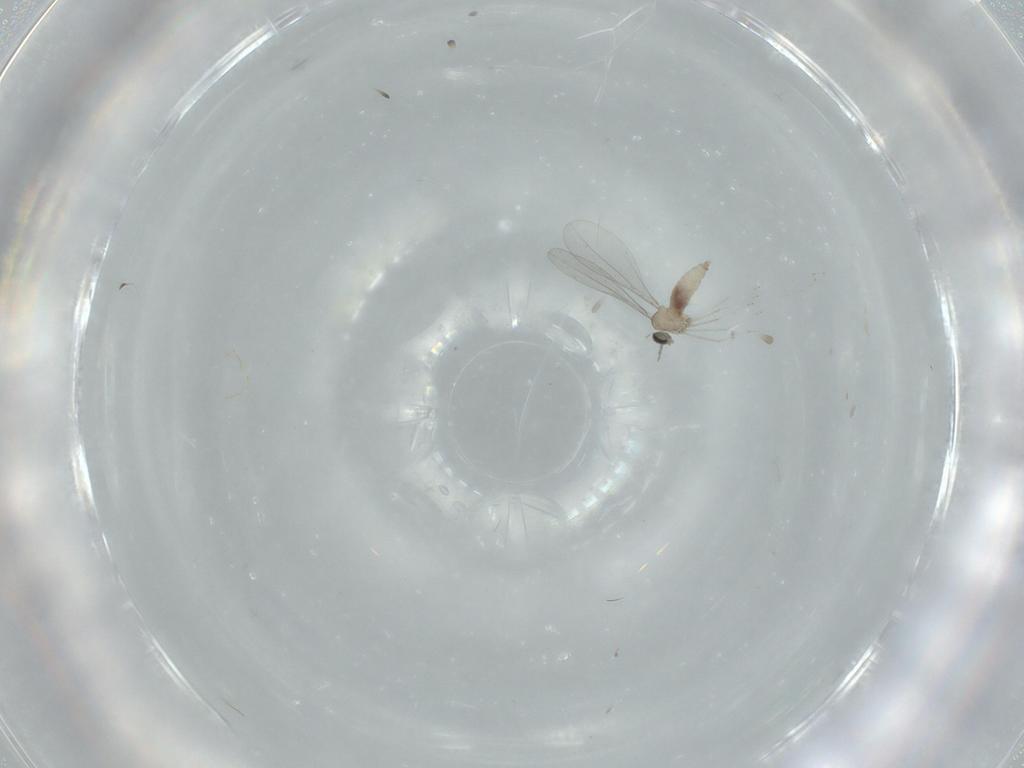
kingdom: Animalia
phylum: Arthropoda
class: Insecta
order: Diptera
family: Cecidomyiidae
